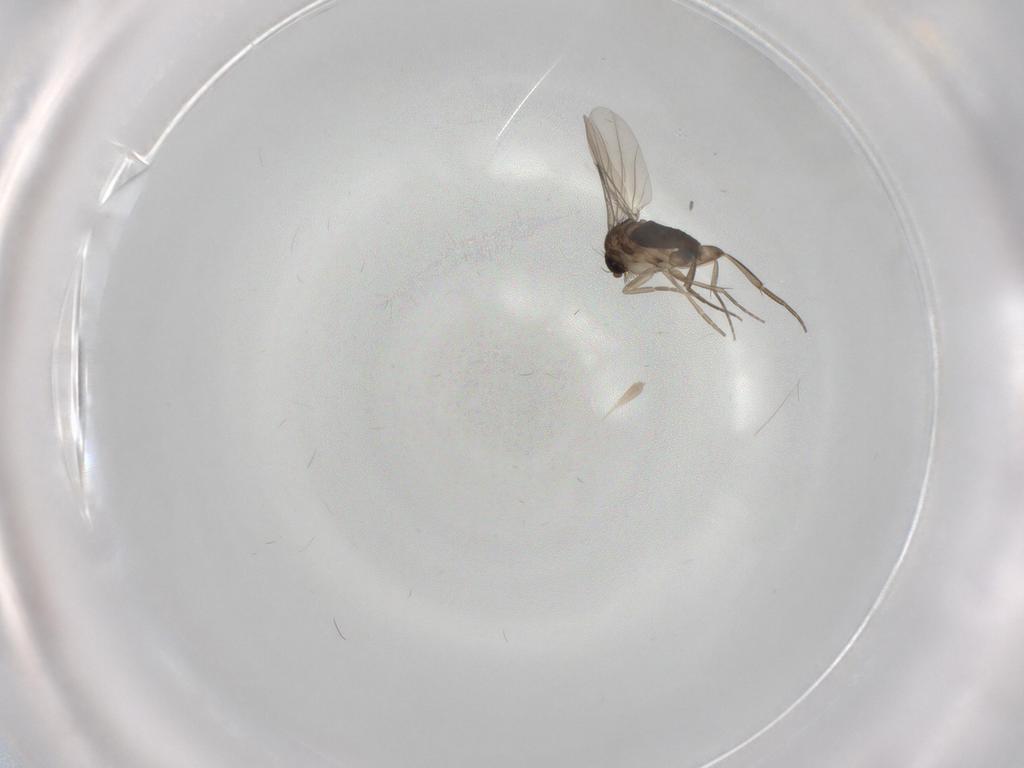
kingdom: Animalia
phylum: Arthropoda
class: Insecta
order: Diptera
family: Phoridae
